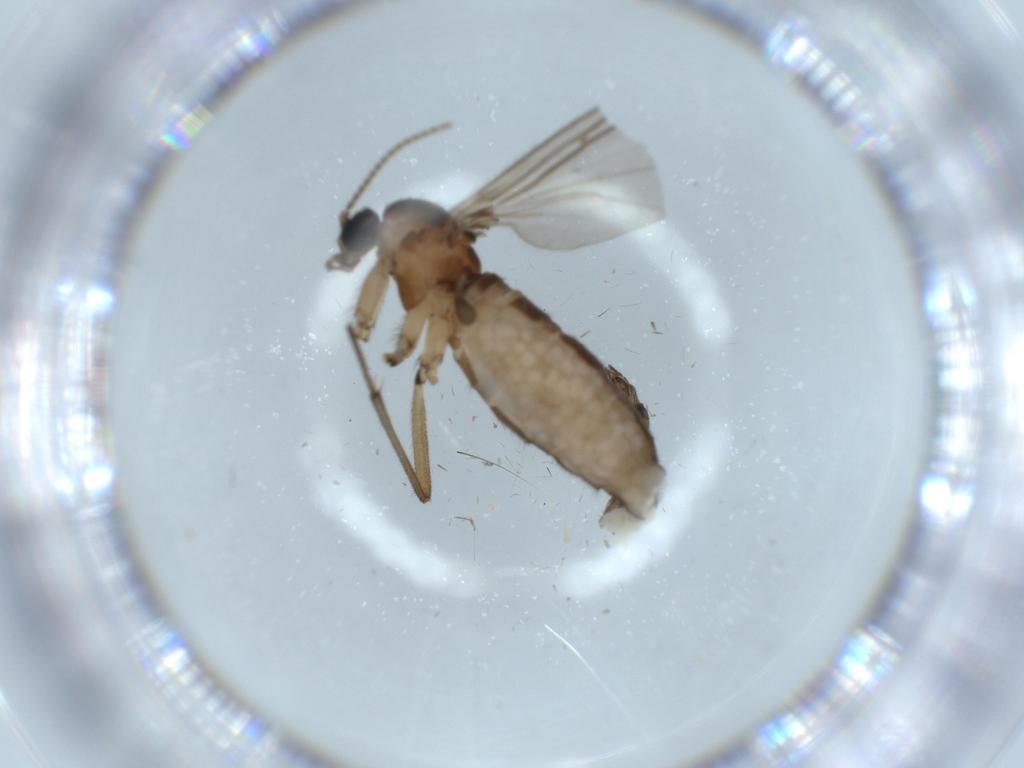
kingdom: Animalia
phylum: Arthropoda
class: Insecta
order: Diptera
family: Sciaridae
